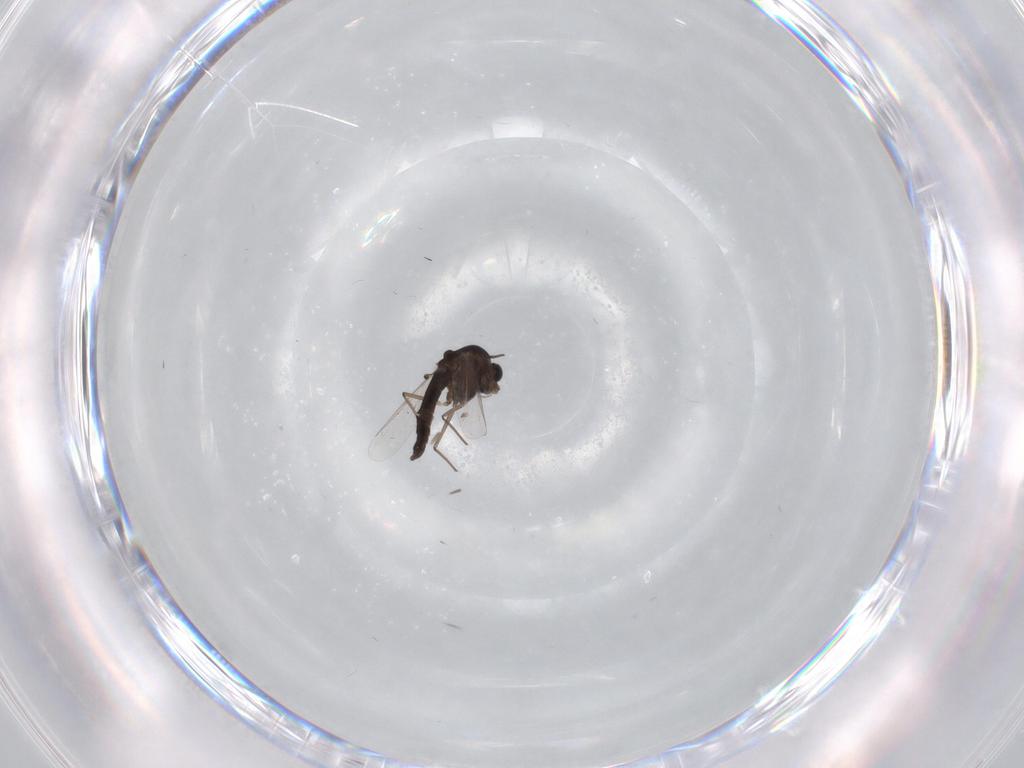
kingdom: Animalia
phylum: Arthropoda
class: Insecta
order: Diptera
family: Chironomidae
